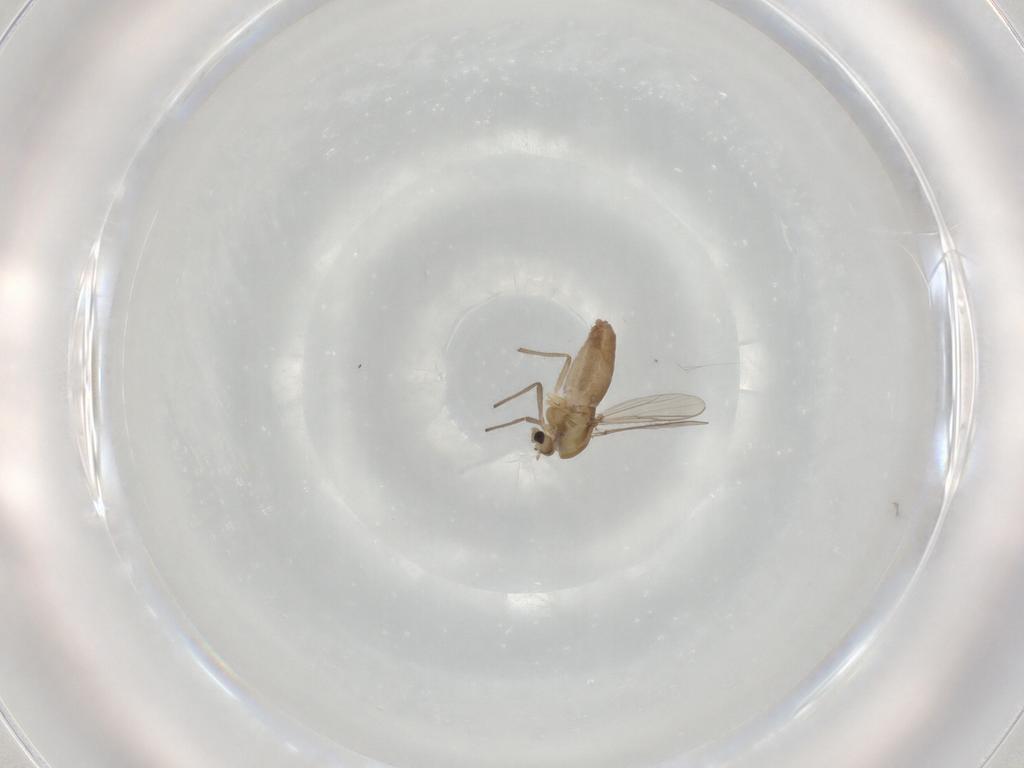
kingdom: Animalia
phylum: Arthropoda
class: Insecta
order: Diptera
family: Chironomidae
